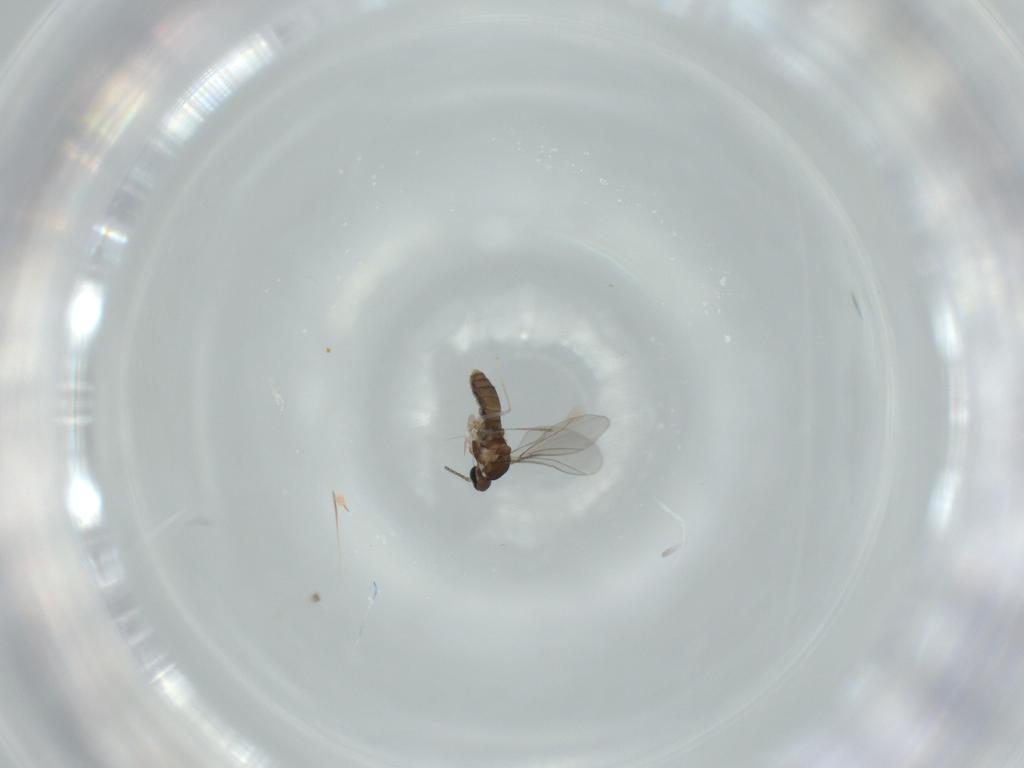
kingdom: Animalia
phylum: Arthropoda
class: Insecta
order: Diptera
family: Cecidomyiidae
